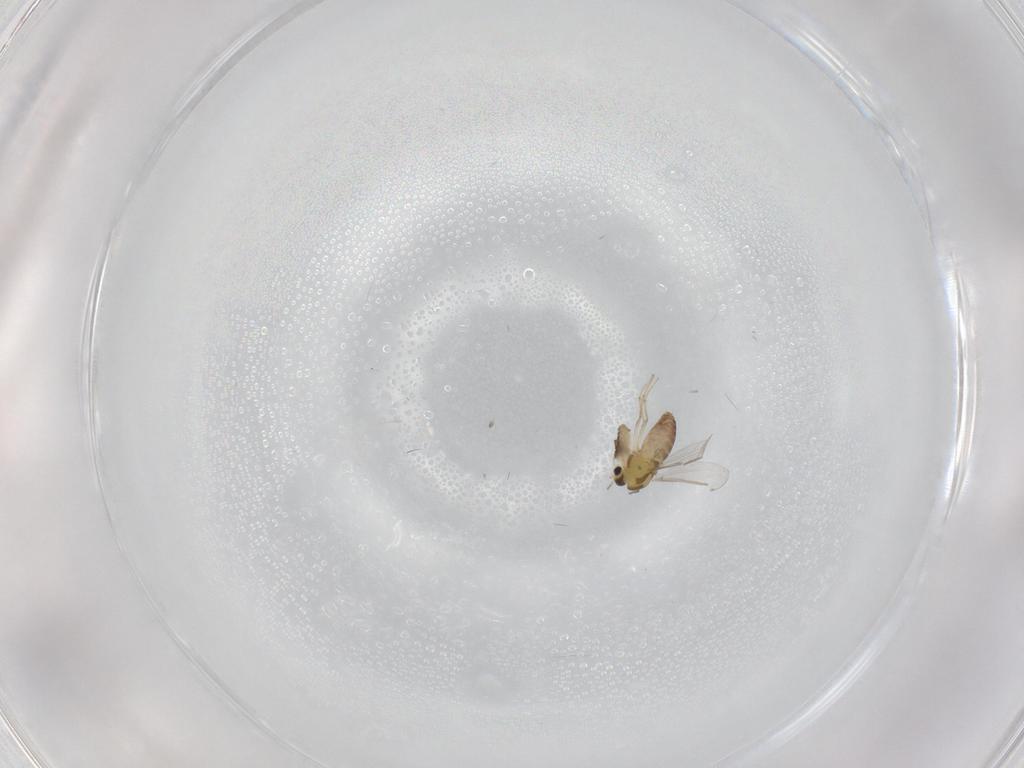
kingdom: Animalia
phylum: Arthropoda
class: Insecta
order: Diptera
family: Chironomidae
